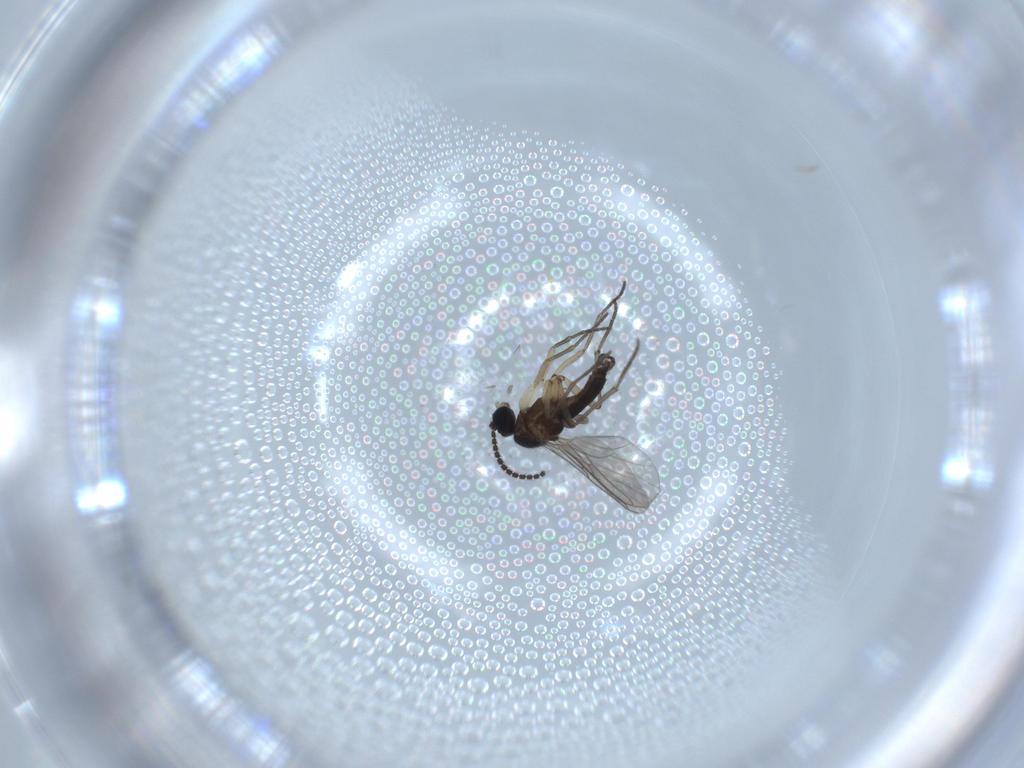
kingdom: Animalia
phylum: Arthropoda
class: Insecta
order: Diptera
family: Sciaridae
